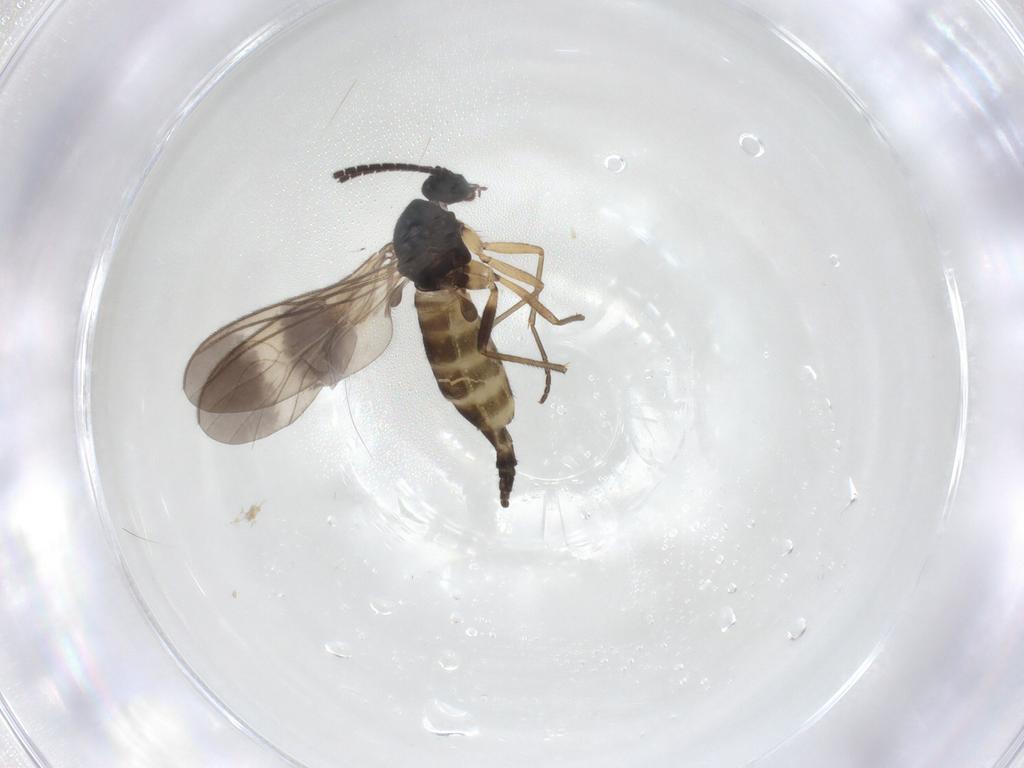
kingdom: Animalia
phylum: Arthropoda
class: Insecta
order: Diptera
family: Sciaridae
